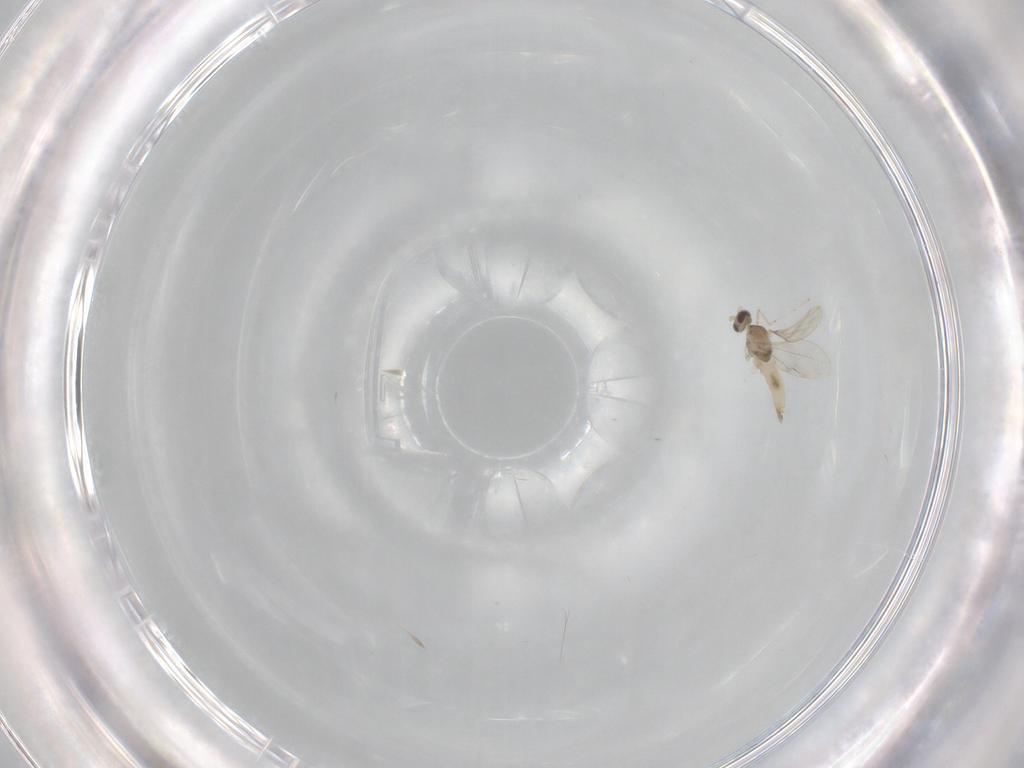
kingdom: Animalia
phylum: Arthropoda
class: Insecta
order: Diptera
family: Cecidomyiidae
